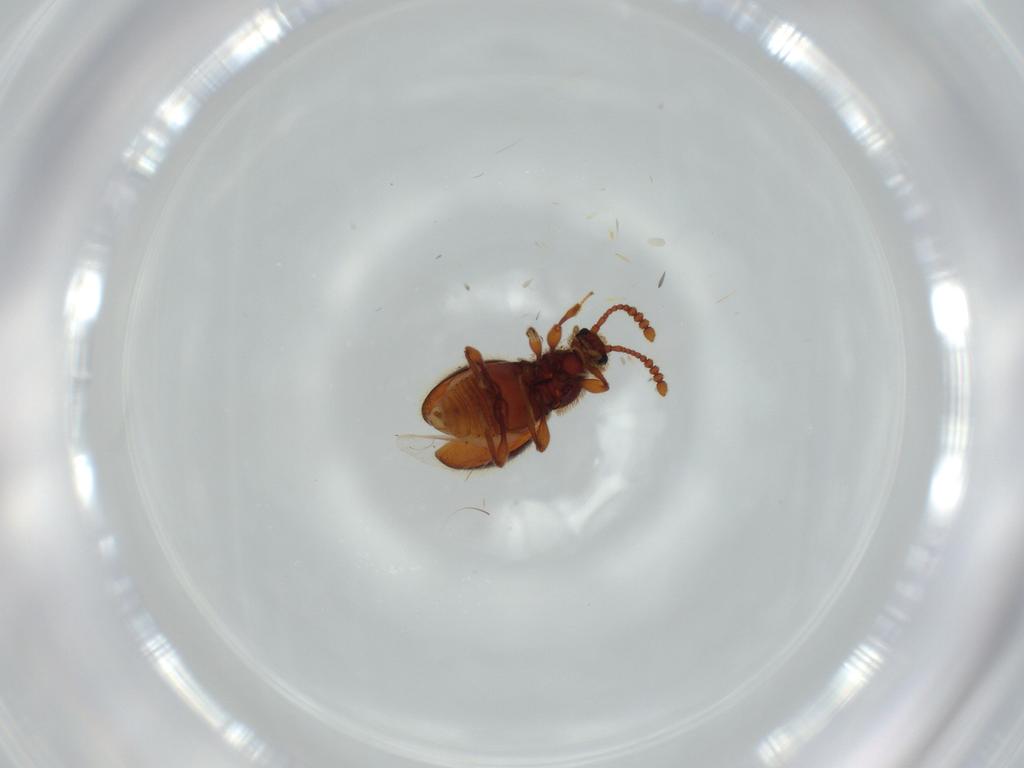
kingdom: Animalia
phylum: Arthropoda
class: Insecta
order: Coleoptera
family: Staphylinidae
